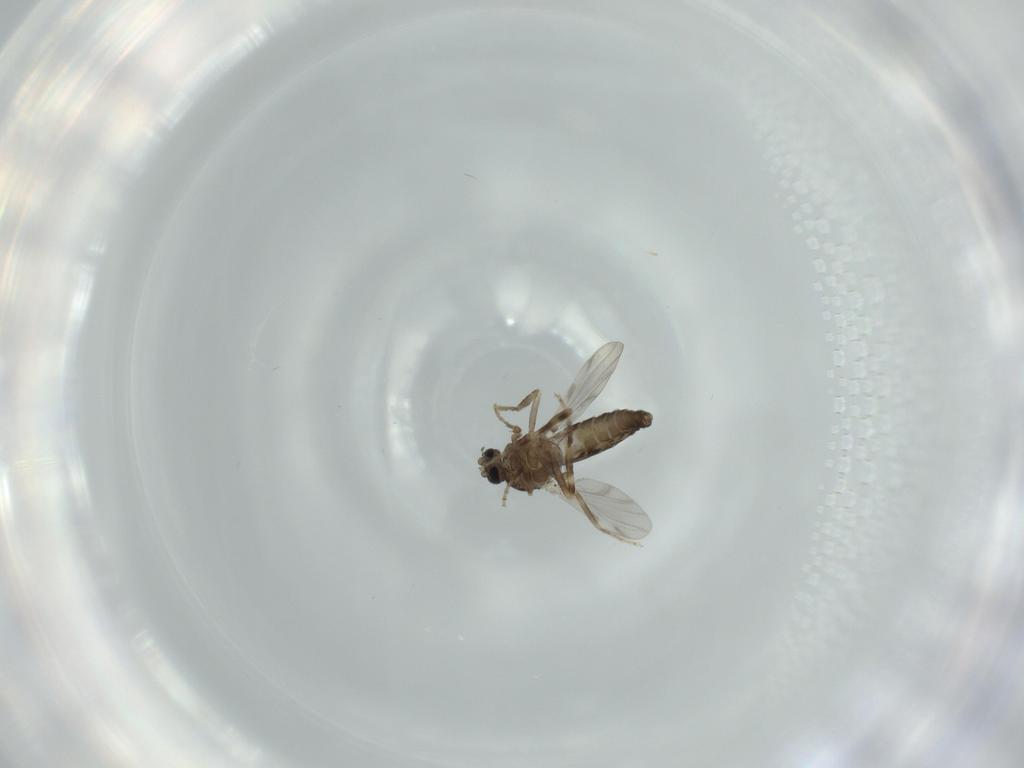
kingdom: Animalia
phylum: Arthropoda
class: Insecta
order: Diptera
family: Ceratopogonidae
